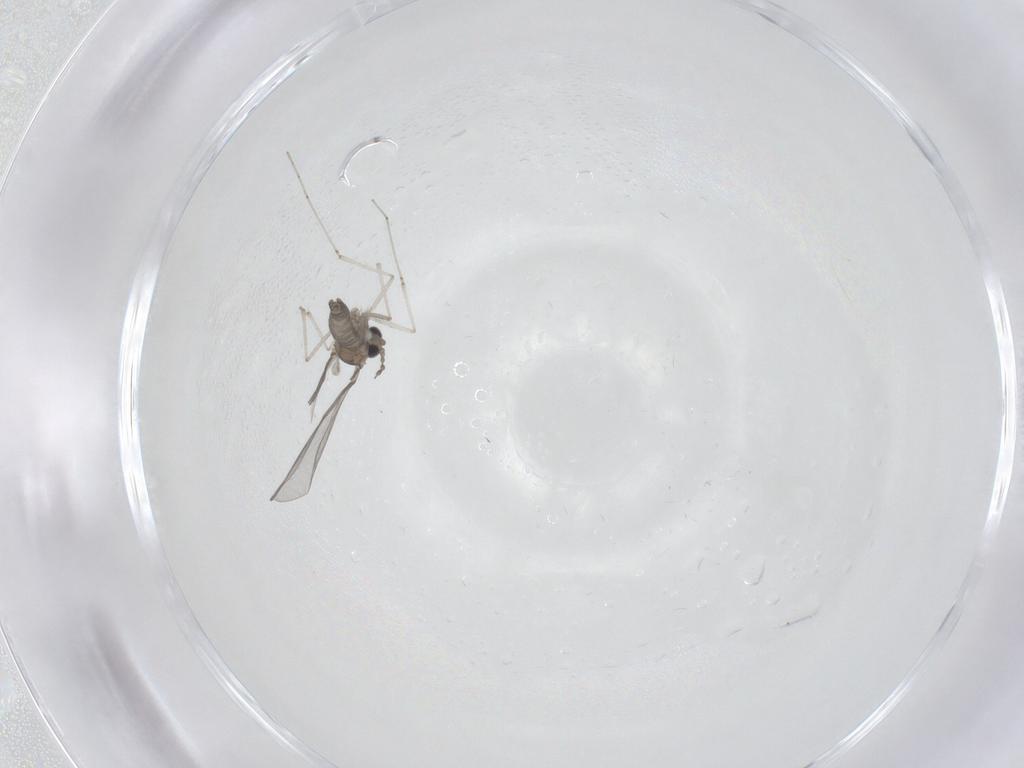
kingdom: Animalia
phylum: Arthropoda
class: Insecta
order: Diptera
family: Cecidomyiidae
